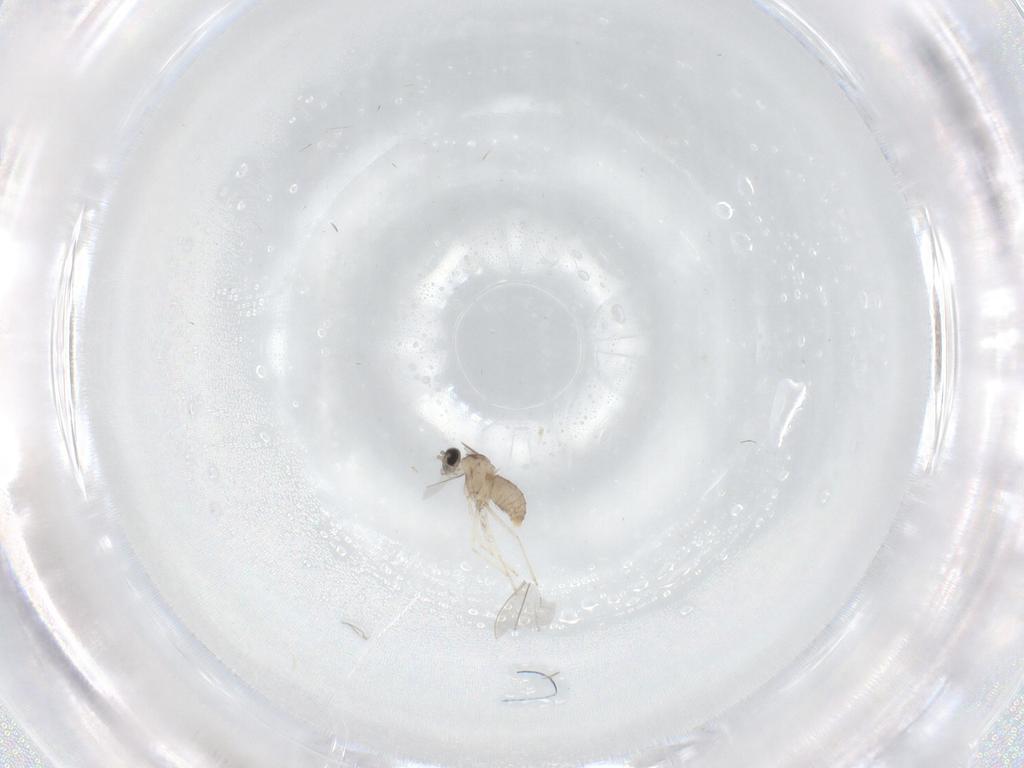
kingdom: Animalia
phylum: Arthropoda
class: Insecta
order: Diptera
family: Cecidomyiidae
